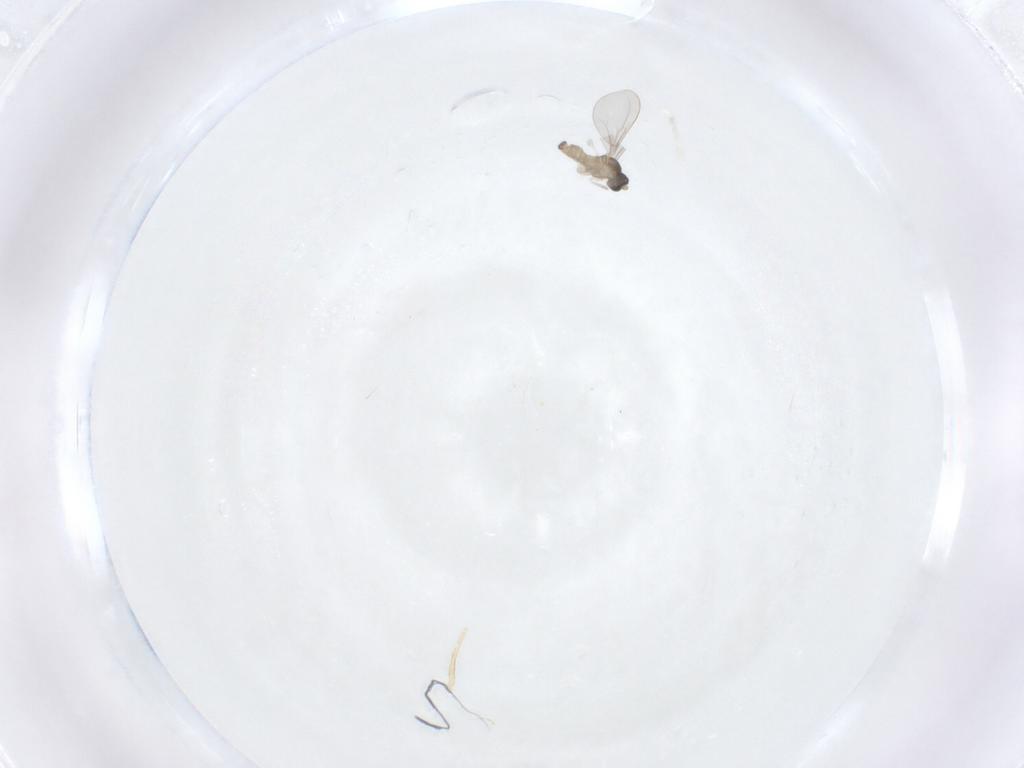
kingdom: Animalia
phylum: Arthropoda
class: Insecta
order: Diptera
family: Cecidomyiidae
